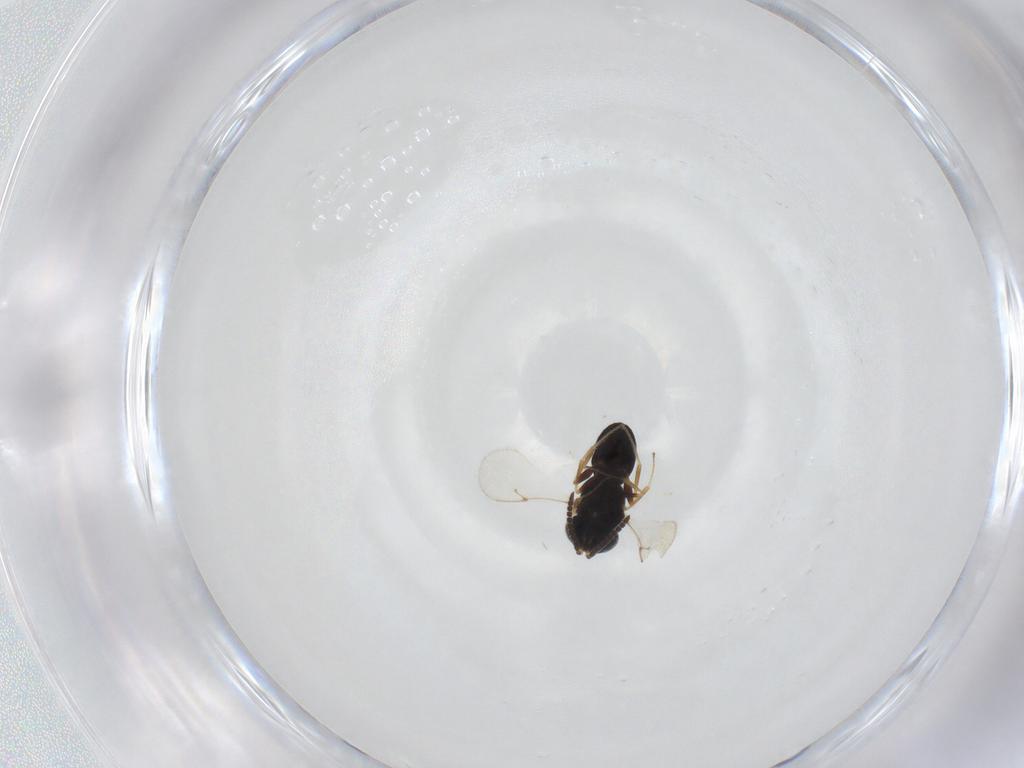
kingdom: Animalia
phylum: Arthropoda
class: Insecta
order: Hymenoptera
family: Scelionidae
